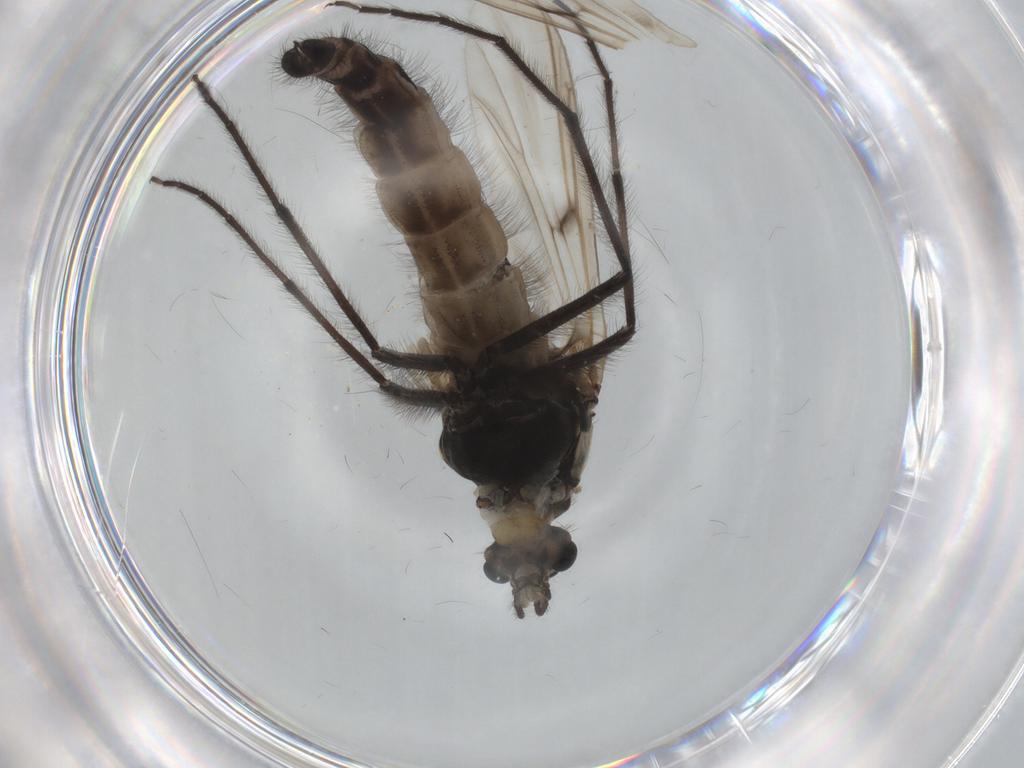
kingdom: Animalia
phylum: Arthropoda
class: Insecta
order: Diptera
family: Chironomidae
